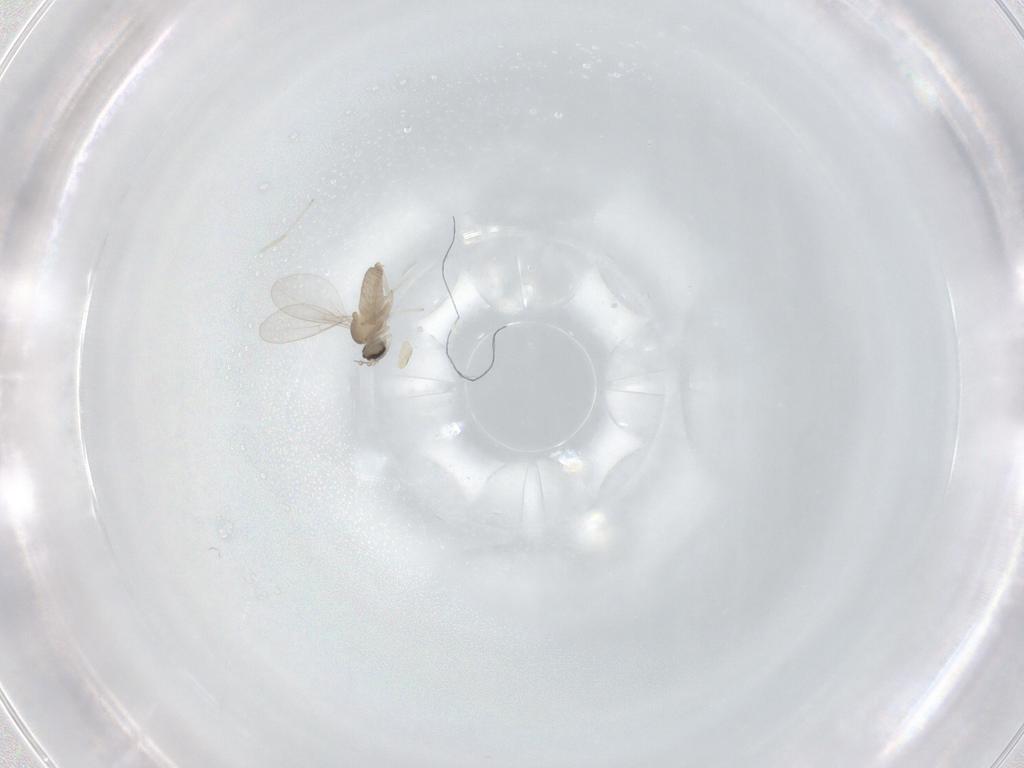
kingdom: Animalia
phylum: Arthropoda
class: Insecta
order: Diptera
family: Cecidomyiidae
